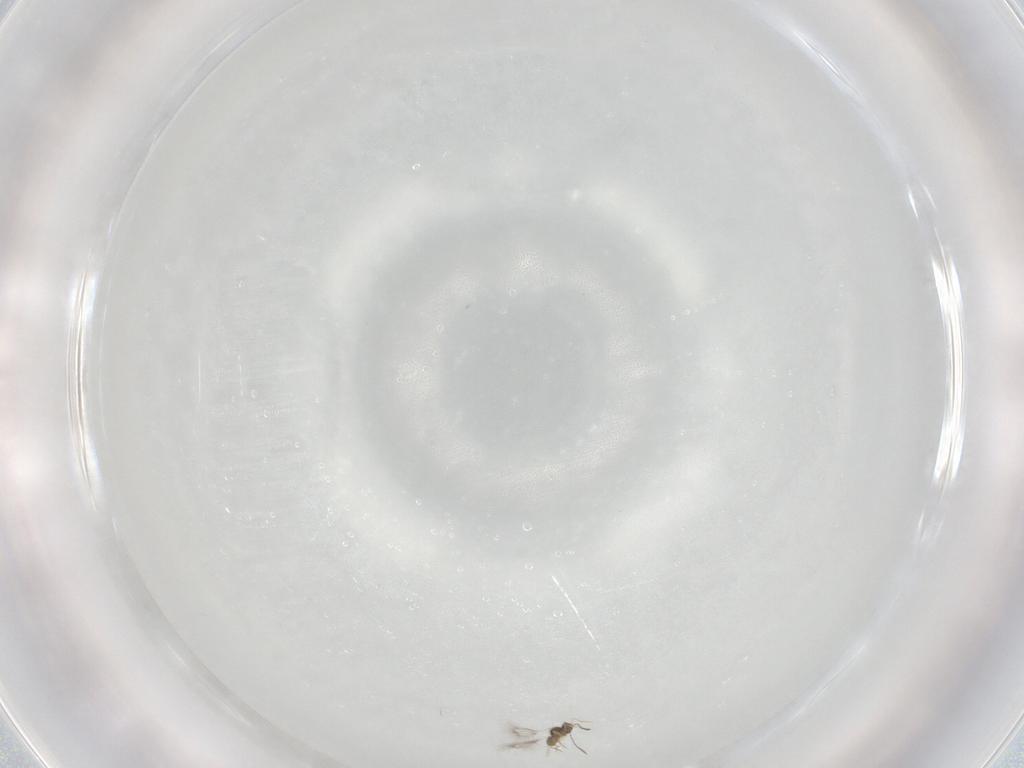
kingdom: Animalia
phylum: Arthropoda
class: Insecta
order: Hymenoptera
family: Mymarommatidae
